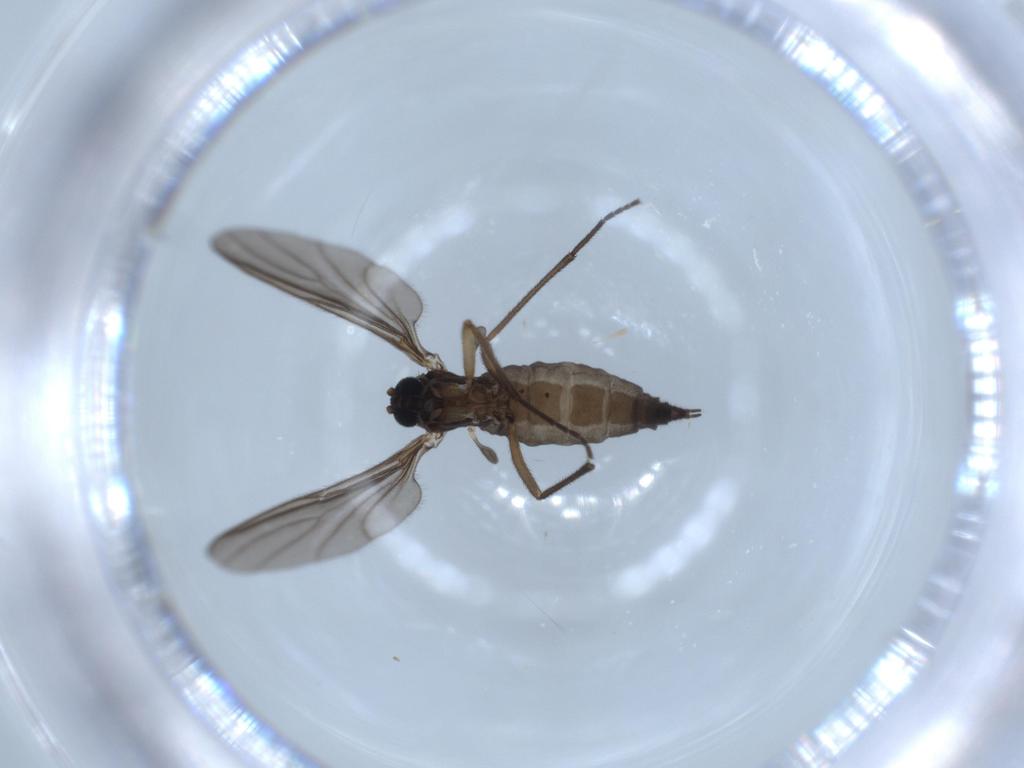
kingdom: Animalia
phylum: Arthropoda
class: Insecta
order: Diptera
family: Sciaridae
